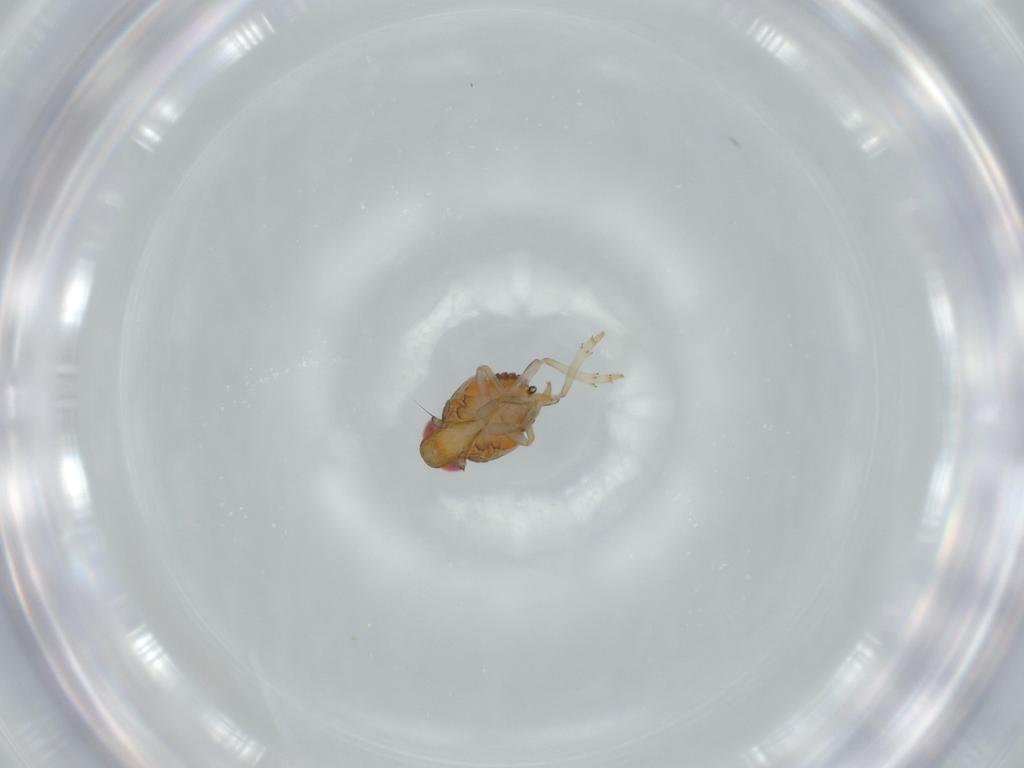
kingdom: Animalia
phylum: Arthropoda
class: Insecta
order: Hemiptera
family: Issidae
